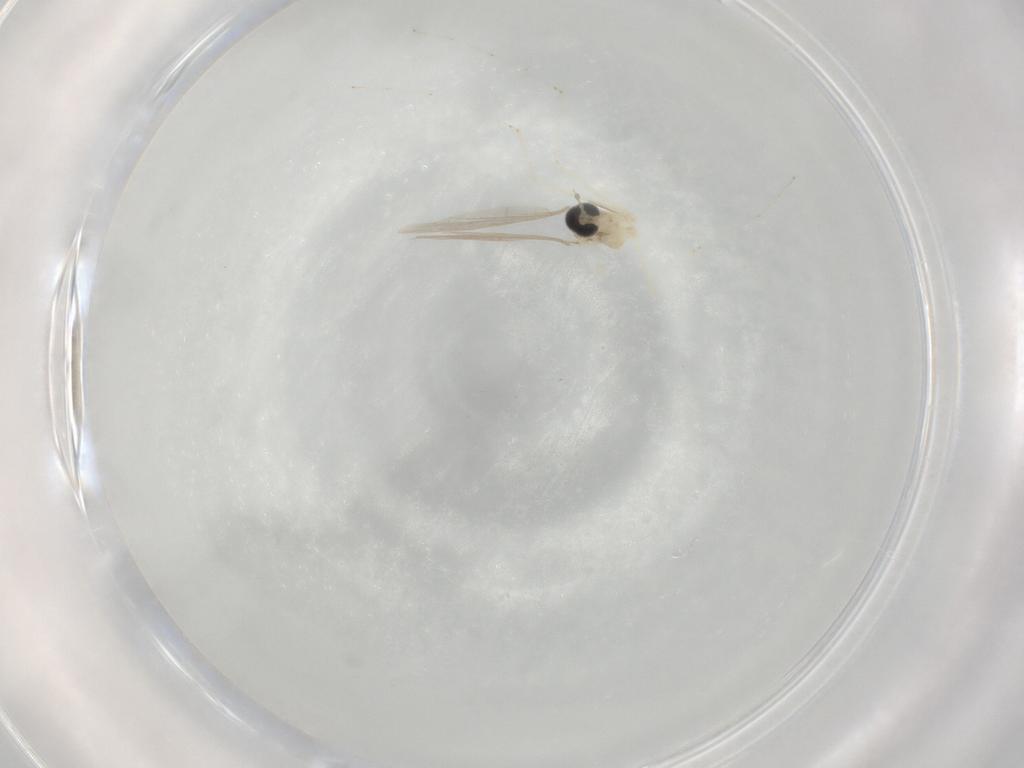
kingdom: Animalia
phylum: Arthropoda
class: Insecta
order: Diptera
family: Cecidomyiidae
